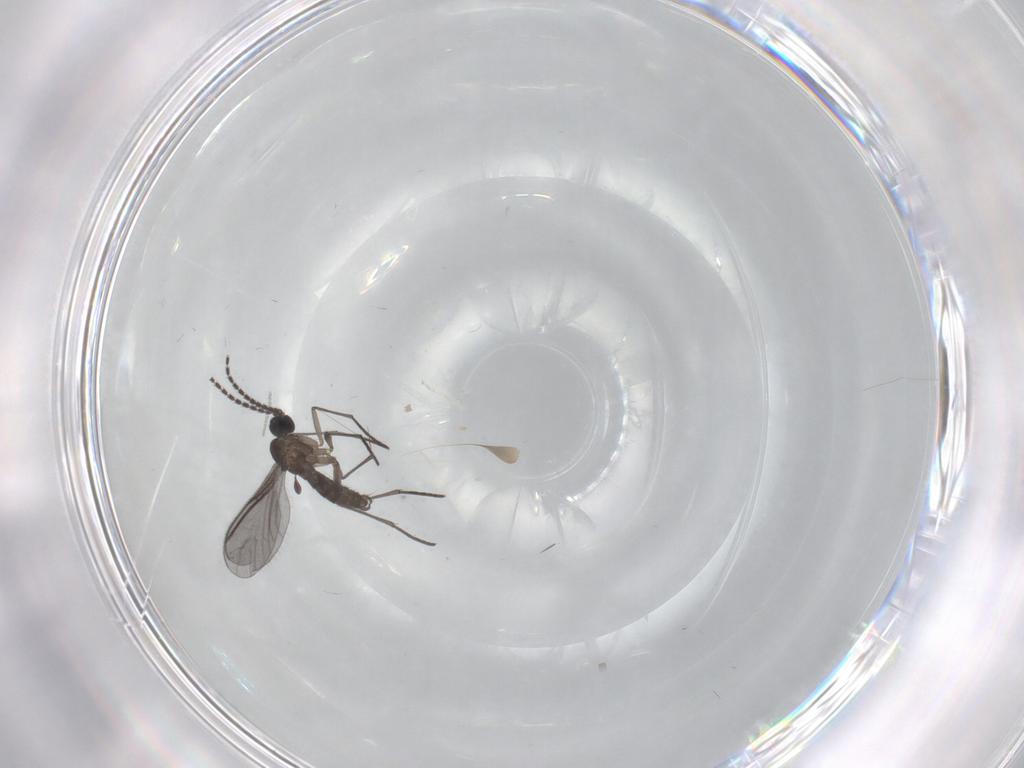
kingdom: Animalia
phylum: Arthropoda
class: Insecta
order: Diptera
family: Cecidomyiidae
